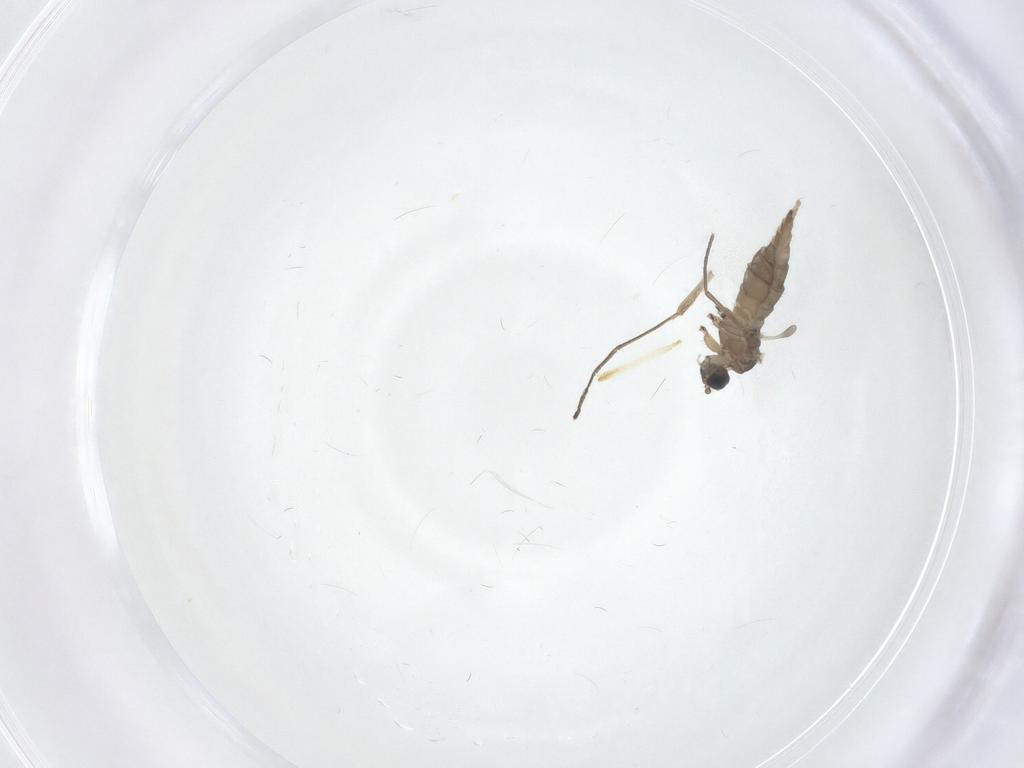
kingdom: Animalia
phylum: Arthropoda
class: Insecta
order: Diptera
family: Sciaridae
